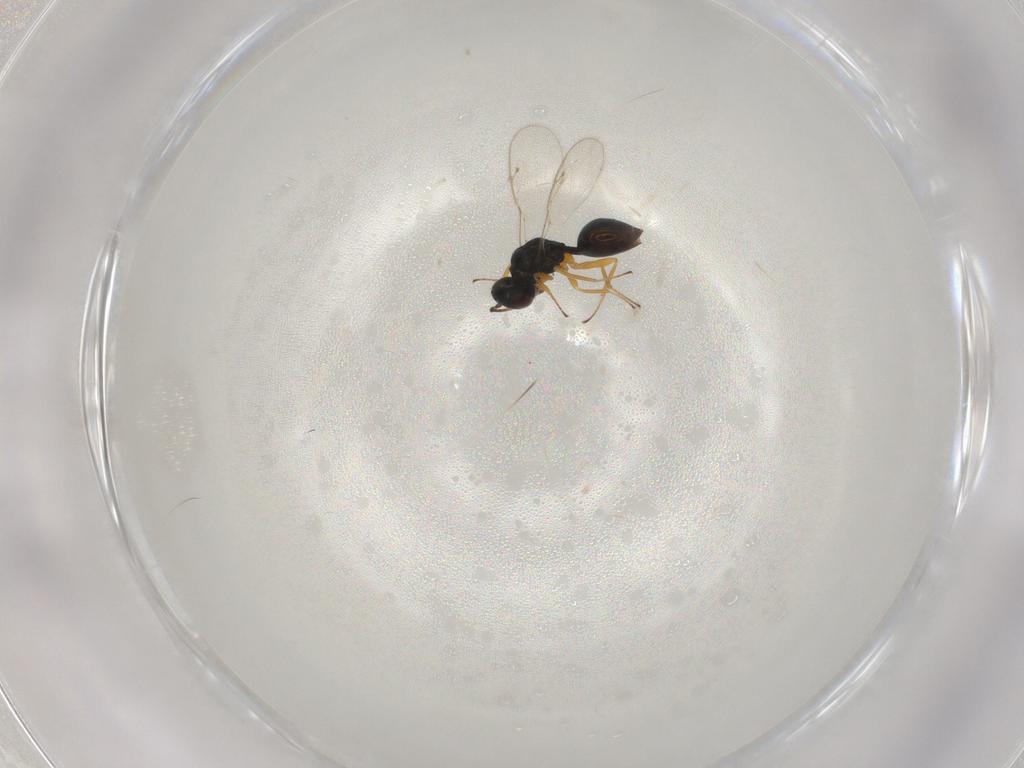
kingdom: Animalia
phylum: Arthropoda
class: Insecta
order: Hymenoptera
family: Pteromalidae
